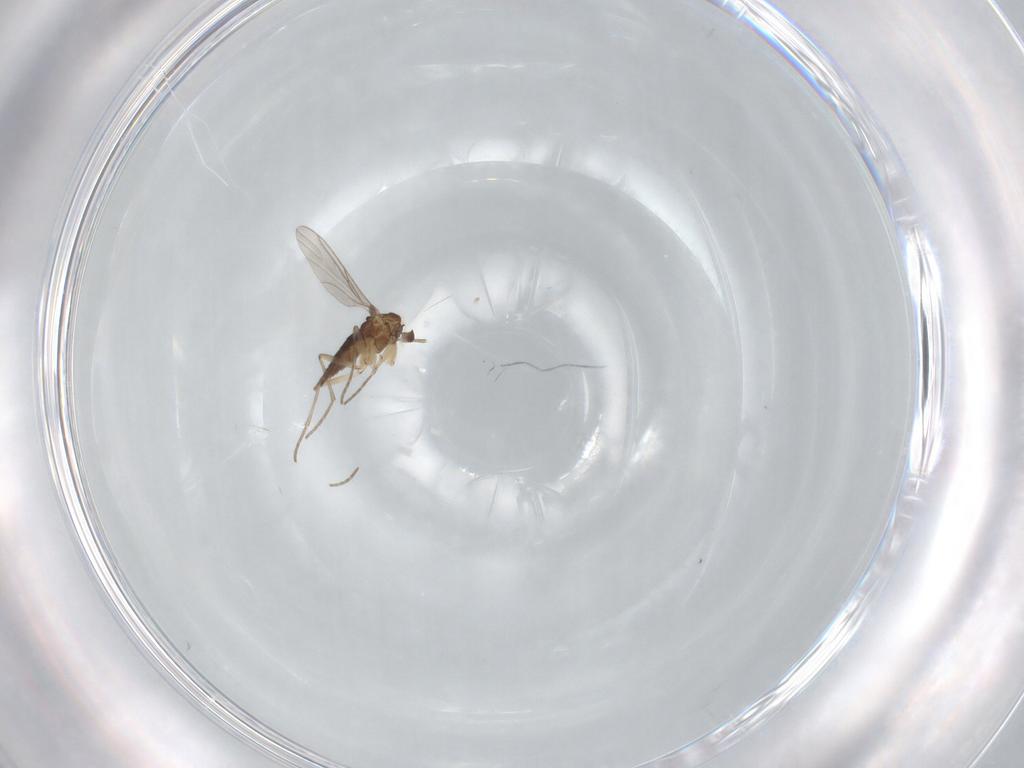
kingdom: Animalia
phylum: Arthropoda
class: Insecta
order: Diptera
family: Sciaridae
